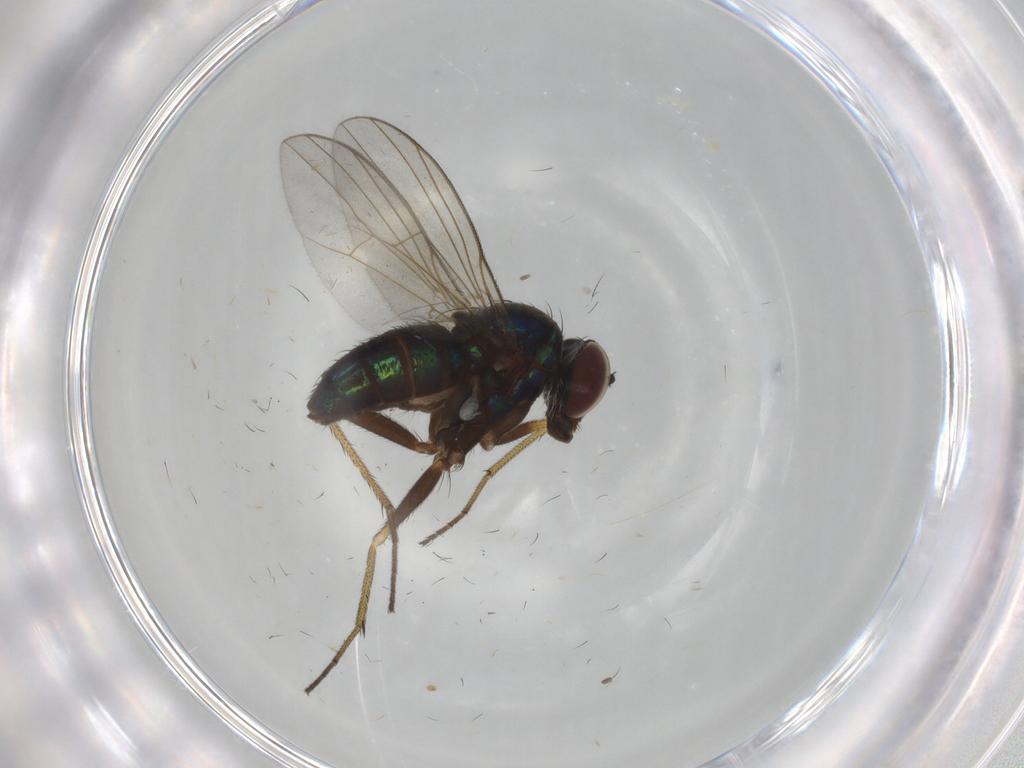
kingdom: Animalia
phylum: Arthropoda
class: Insecta
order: Diptera
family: Dolichopodidae
